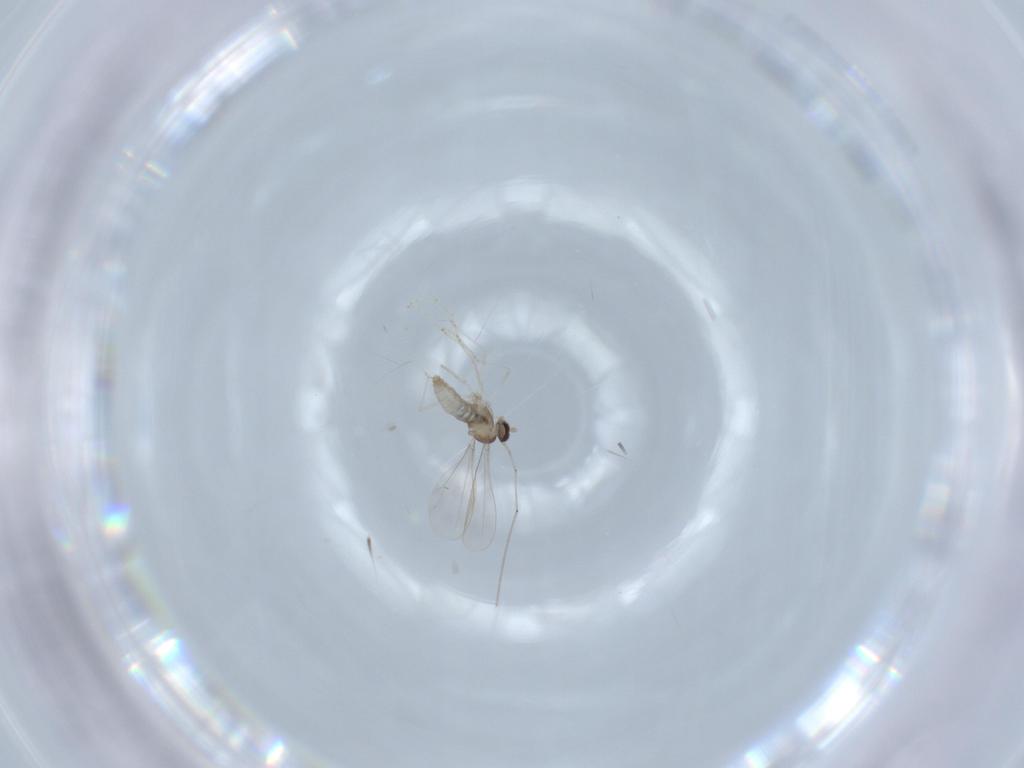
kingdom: Animalia
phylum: Arthropoda
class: Insecta
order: Diptera
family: Cecidomyiidae
